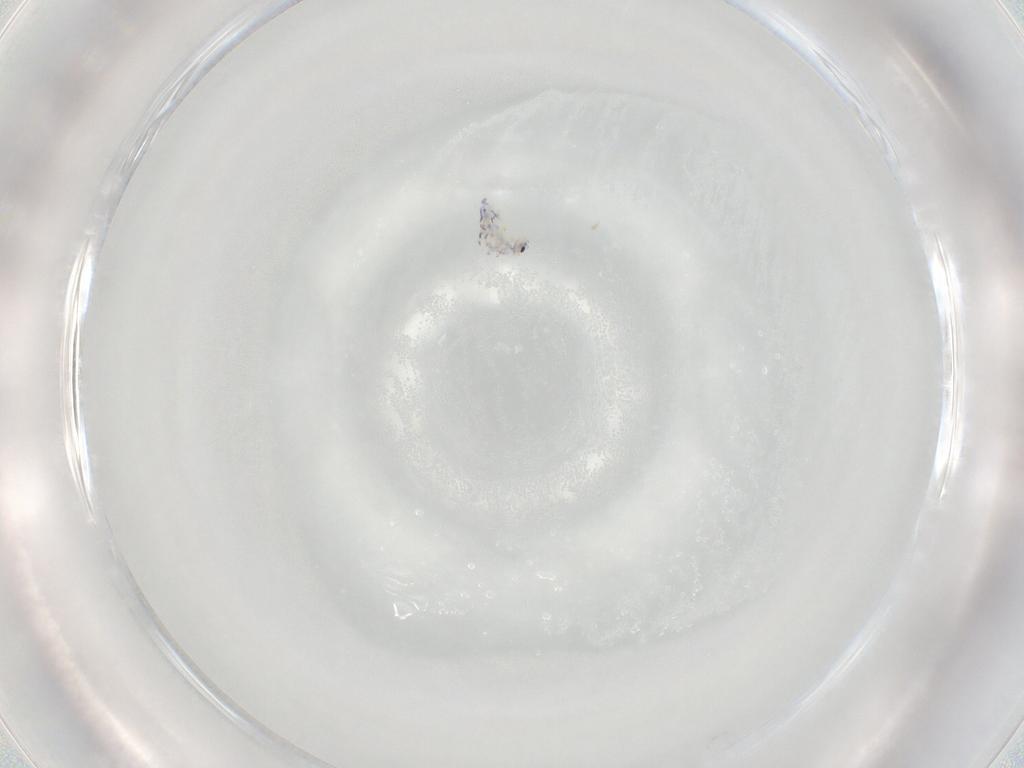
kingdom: Animalia
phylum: Arthropoda
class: Collembola
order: Entomobryomorpha
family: Entomobryidae
